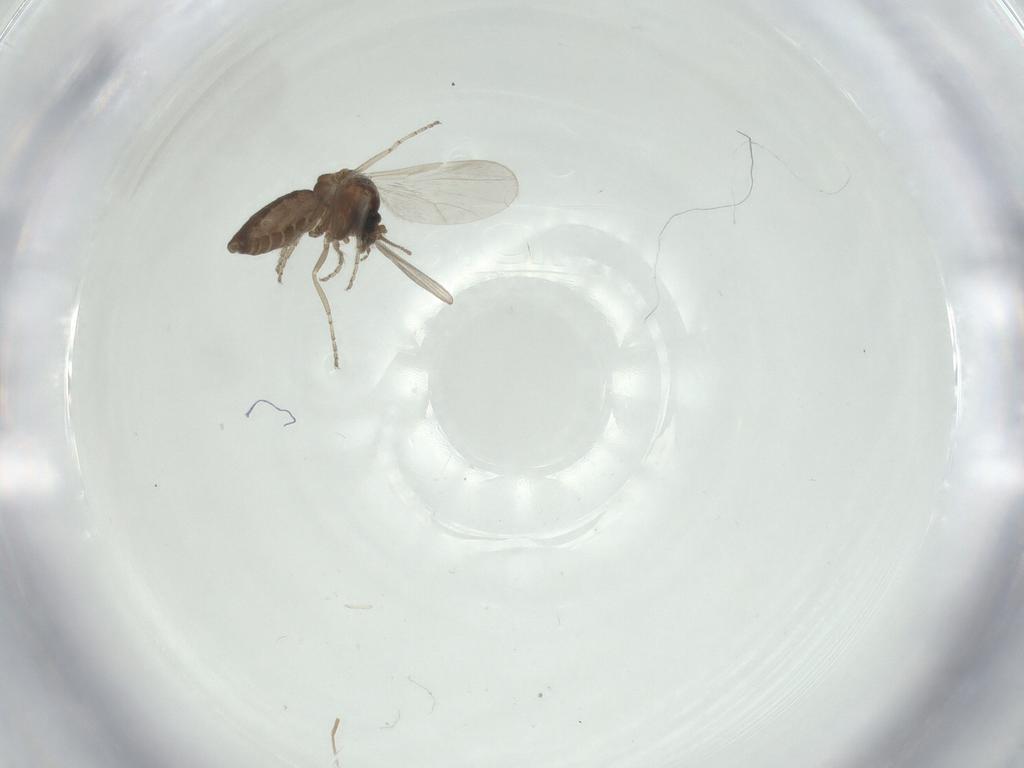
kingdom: Animalia
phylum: Arthropoda
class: Insecta
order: Diptera
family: Ceratopogonidae
